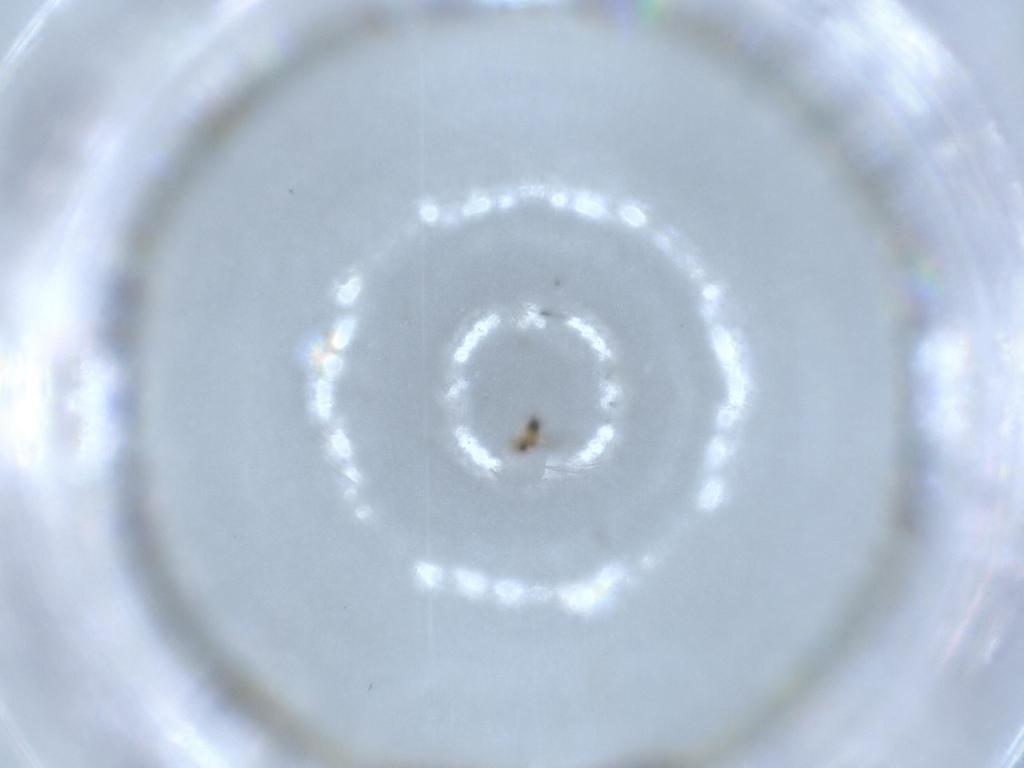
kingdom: Animalia
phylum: Arthropoda
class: Insecta
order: Hymenoptera
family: Trichogrammatidae
